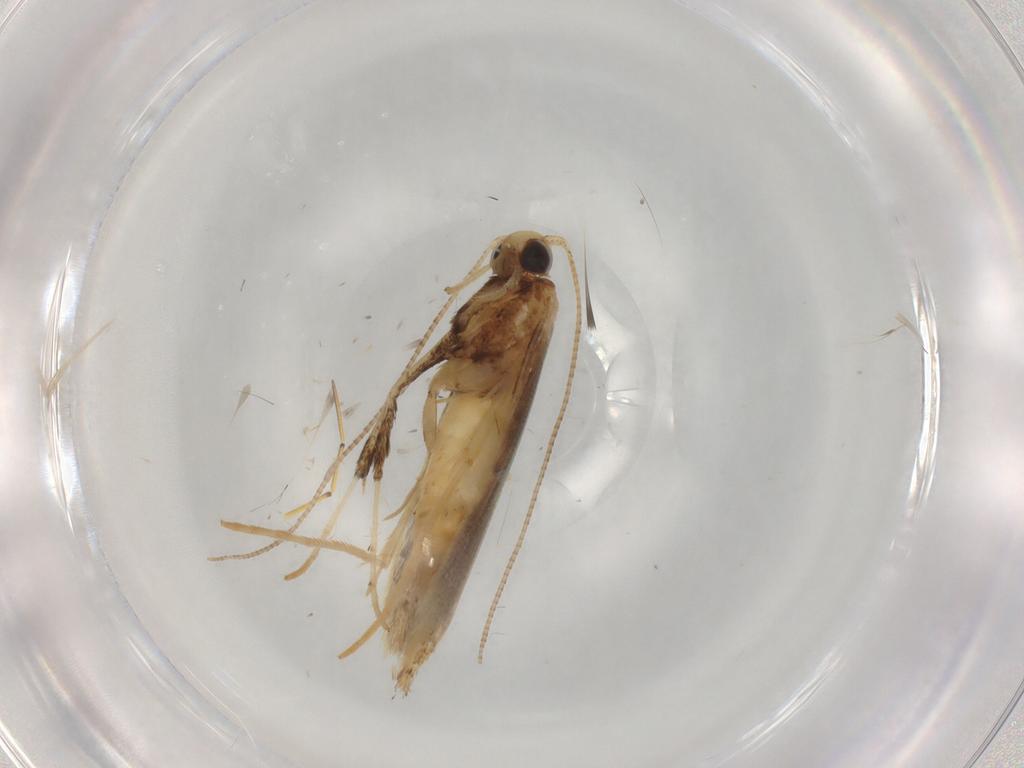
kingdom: Animalia
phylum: Arthropoda
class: Insecta
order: Lepidoptera
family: Gracillariidae
